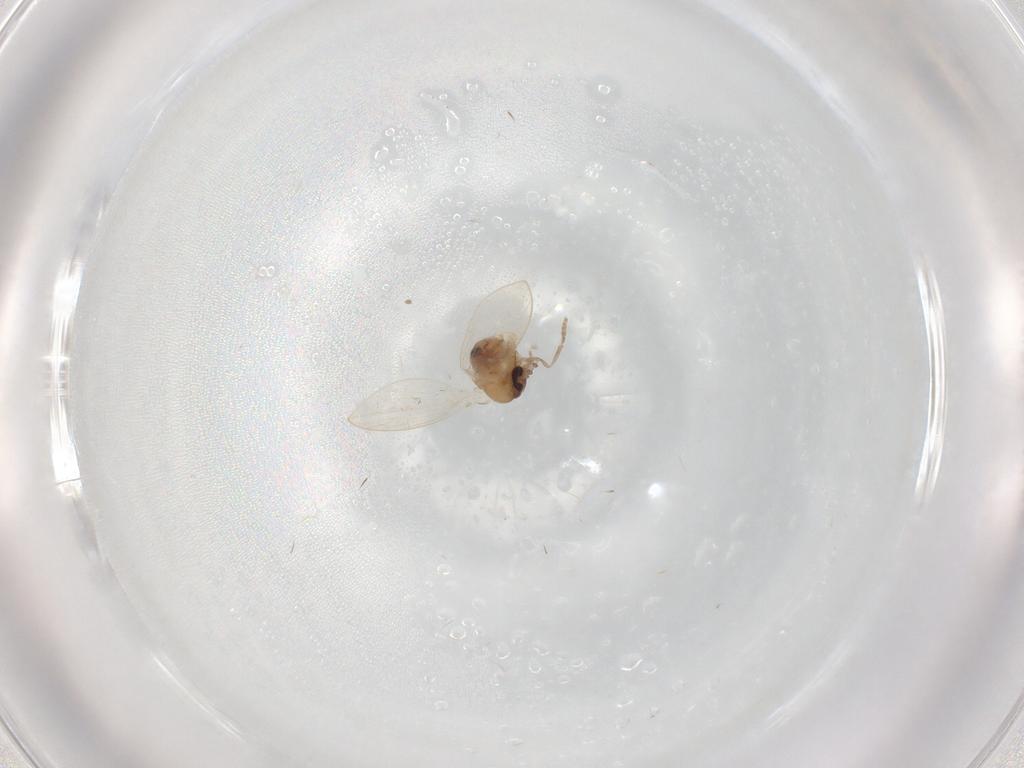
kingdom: Animalia
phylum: Arthropoda
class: Insecta
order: Diptera
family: Psychodidae
